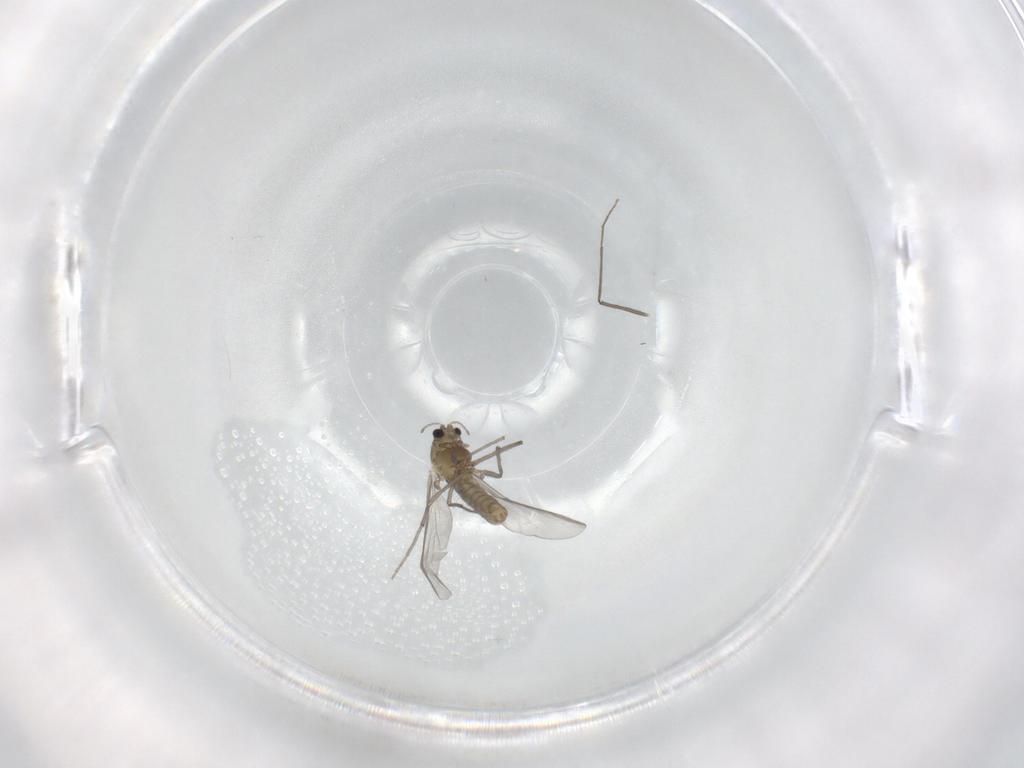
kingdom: Animalia
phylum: Arthropoda
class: Insecta
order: Diptera
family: Chironomidae
